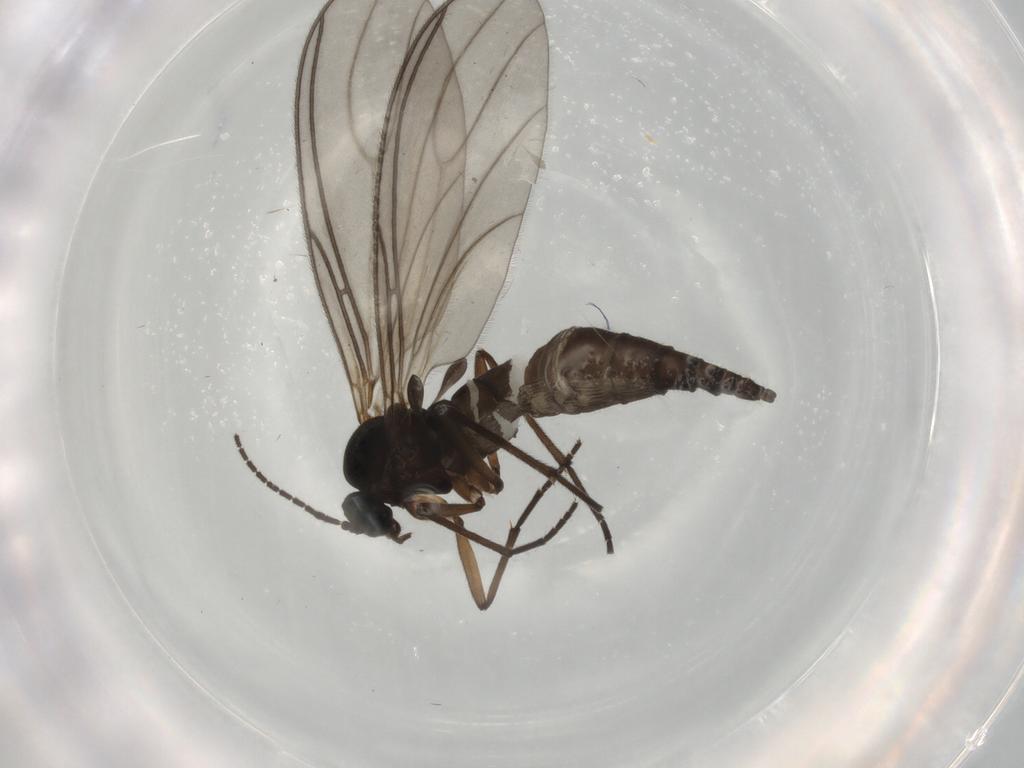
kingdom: Animalia
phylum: Arthropoda
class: Insecta
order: Diptera
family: Sciaridae
